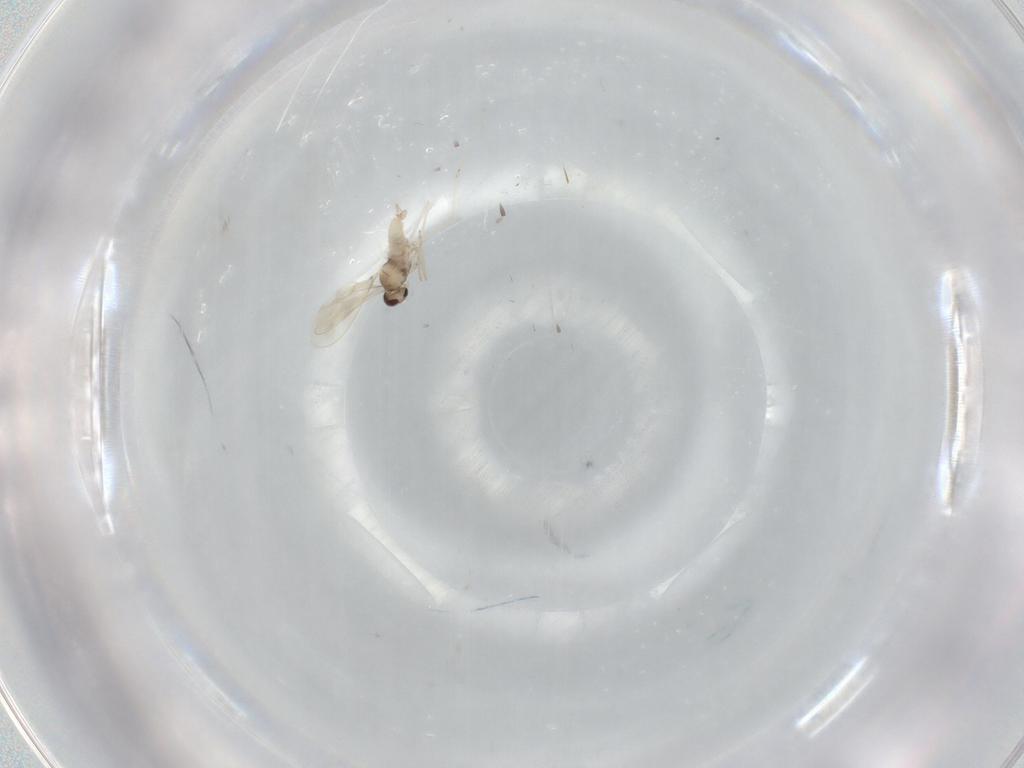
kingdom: Animalia
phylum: Arthropoda
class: Insecta
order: Diptera
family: Cecidomyiidae
